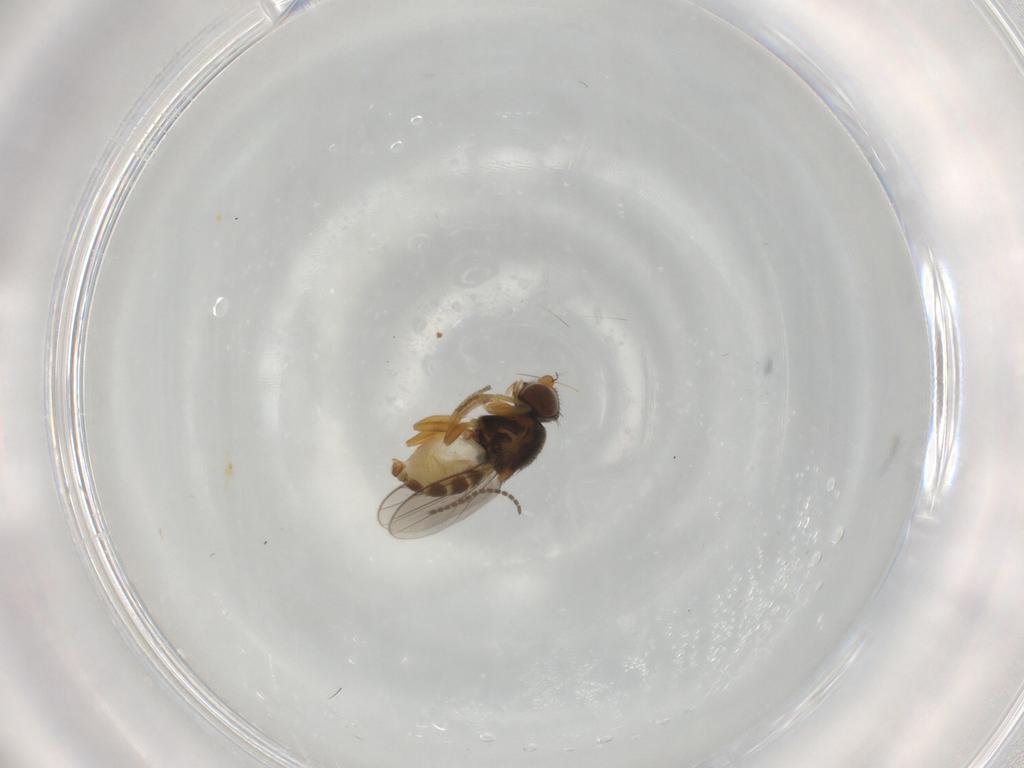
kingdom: Animalia
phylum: Arthropoda
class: Insecta
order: Diptera
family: Chloropidae
